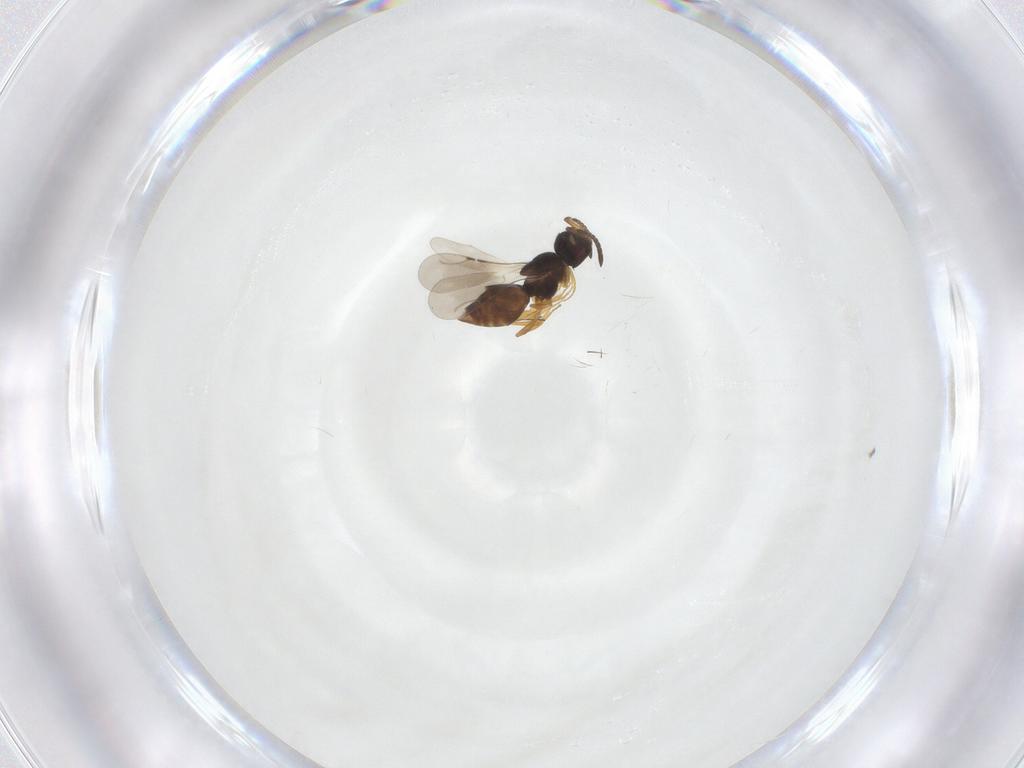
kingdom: Animalia
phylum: Arthropoda
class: Insecta
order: Hymenoptera
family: Ceraphronidae
